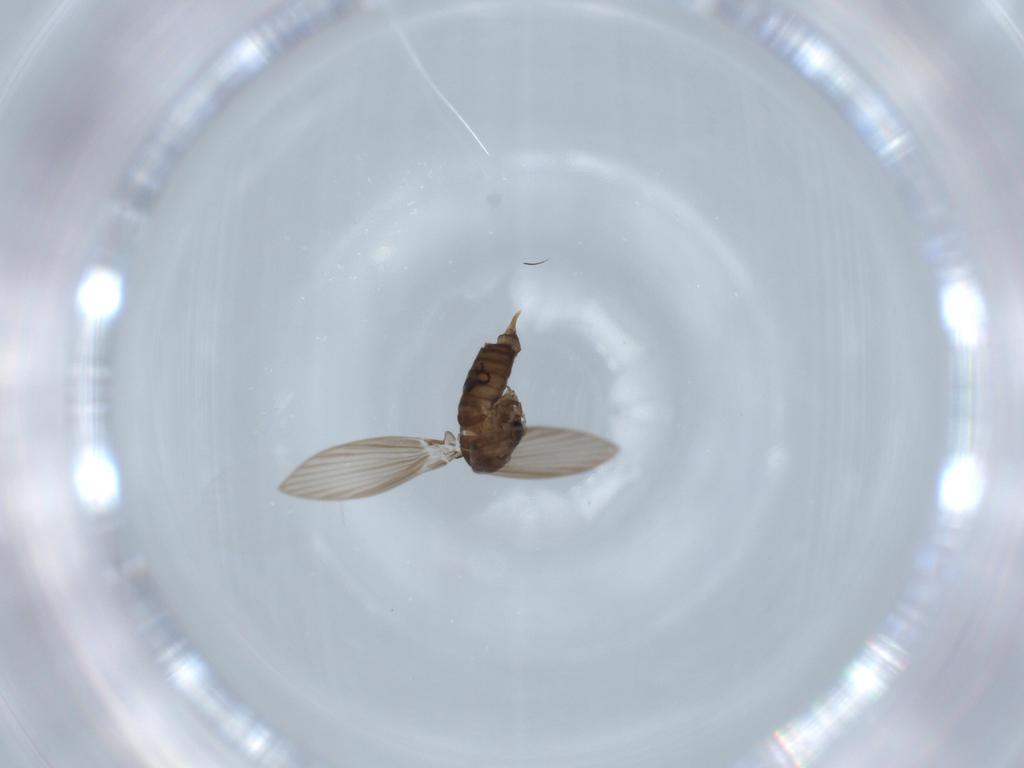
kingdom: Animalia
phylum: Arthropoda
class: Insecta
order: Diptera
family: Psychodidae
